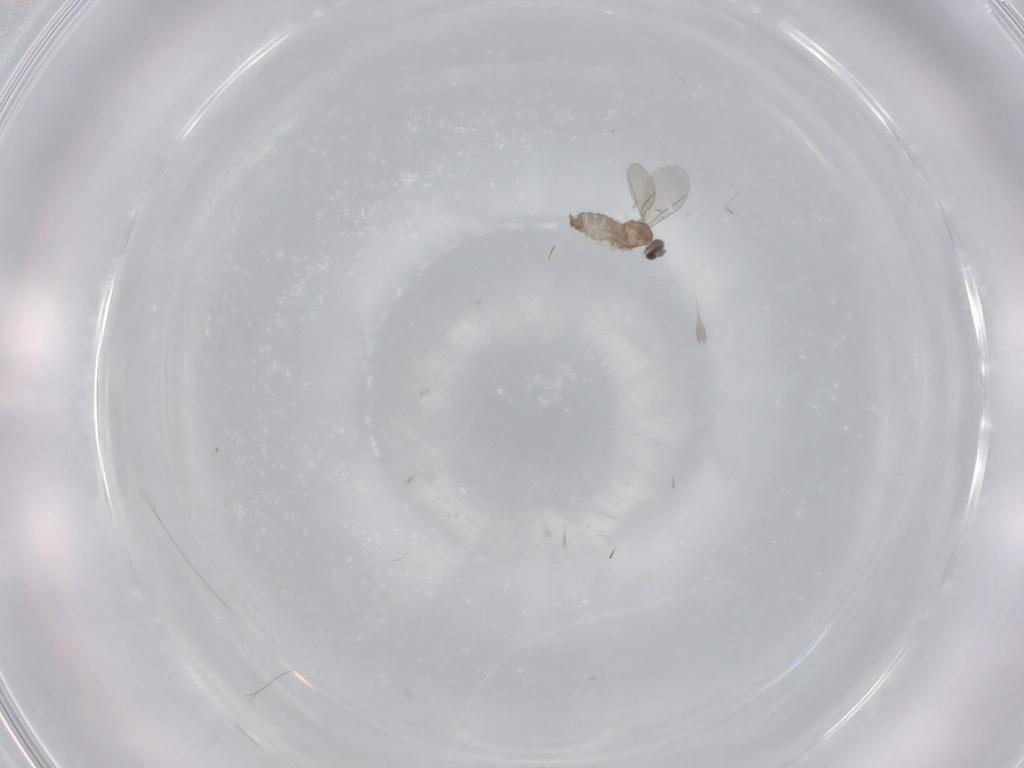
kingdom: Animalia
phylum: Arthropoda
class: Insecta
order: Diptera
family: Cecidomyiidae
